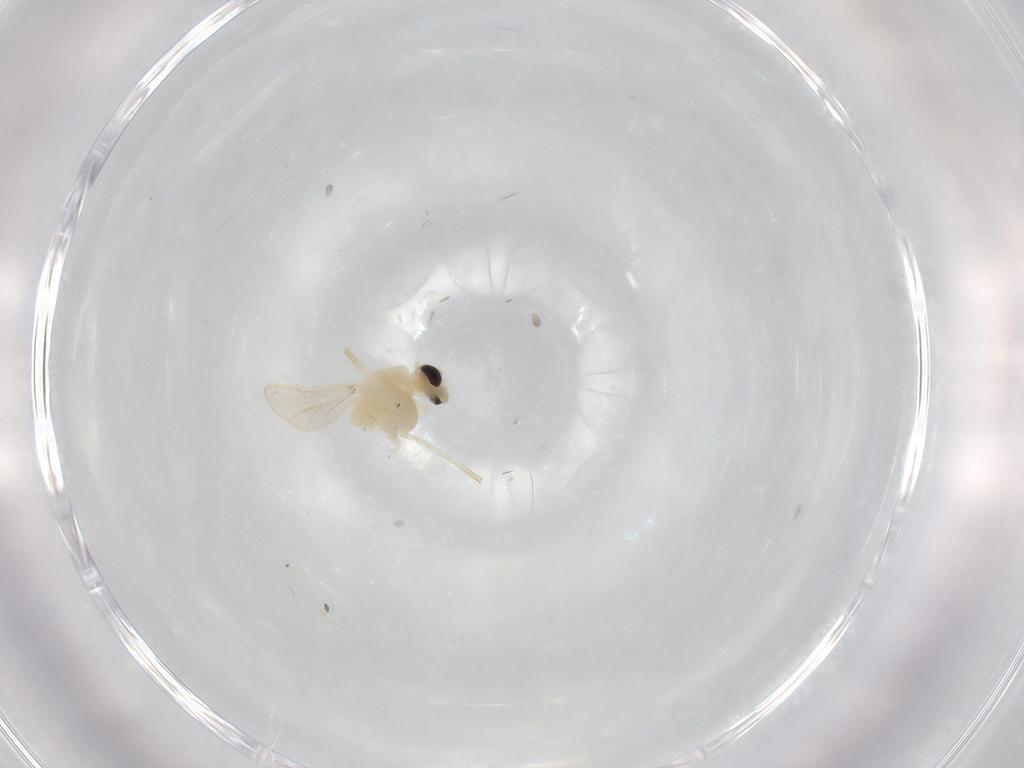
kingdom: Animalia
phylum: Arthropoda
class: Insecta
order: Diptera
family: Chironomidae
